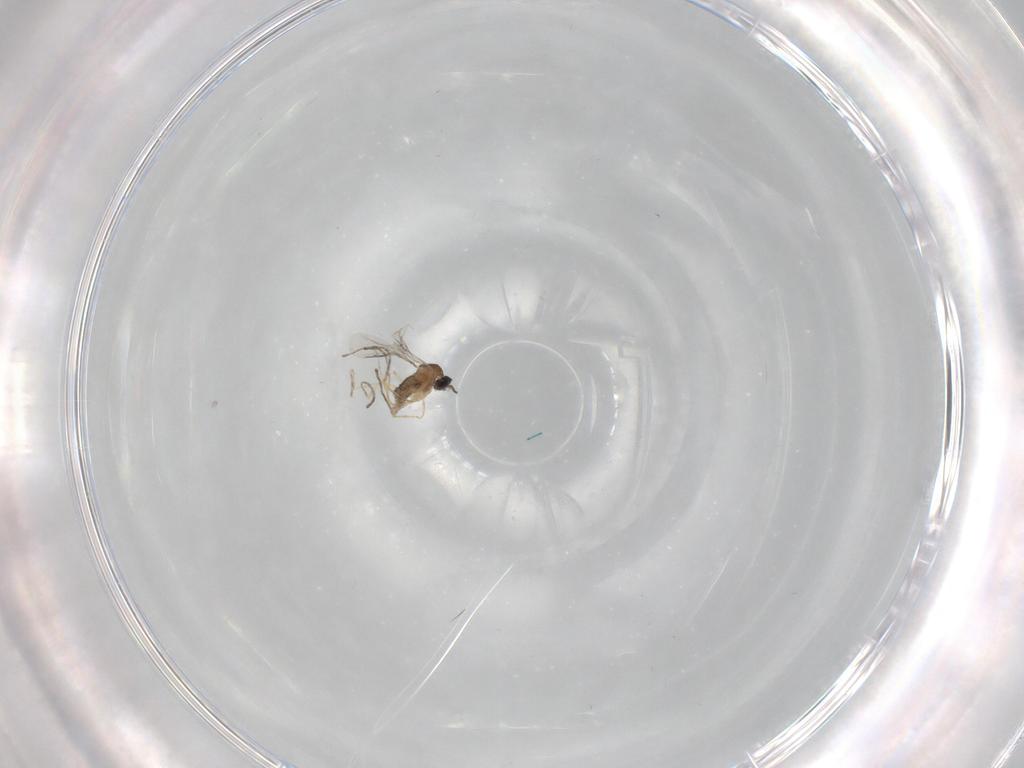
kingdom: Animalia
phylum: Arthropoda
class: Insecta
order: Diptera
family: Cecidomyiidae
